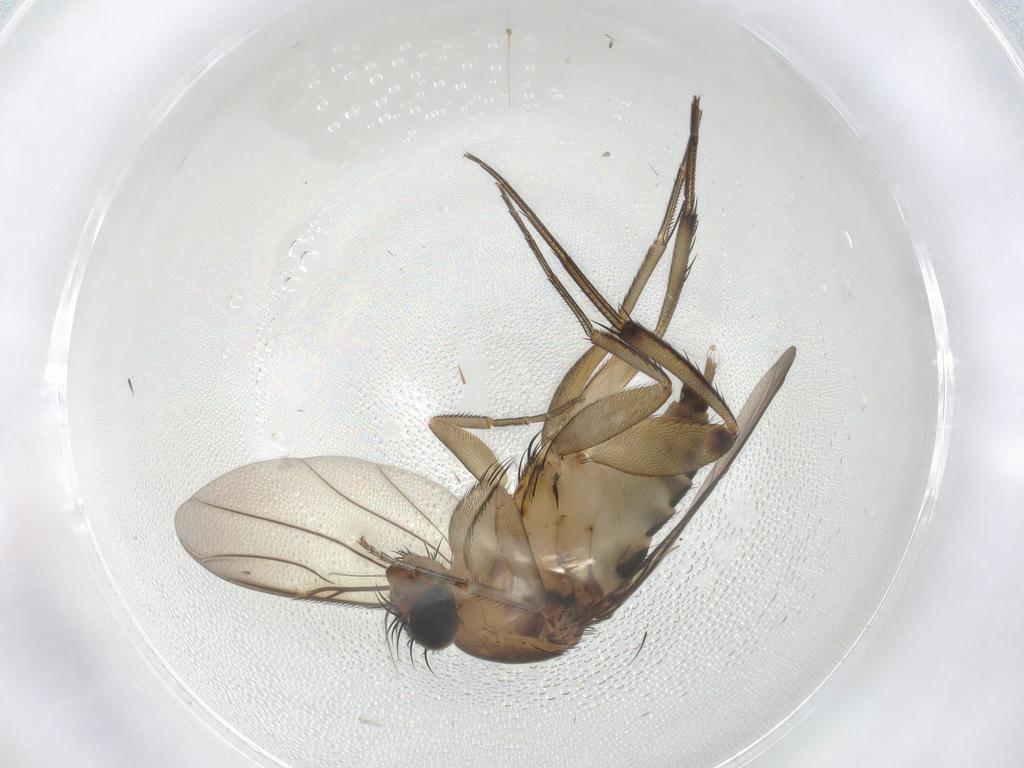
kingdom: Animalia
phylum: Arthropoda
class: Insecta
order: Diptera
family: Phoridae
